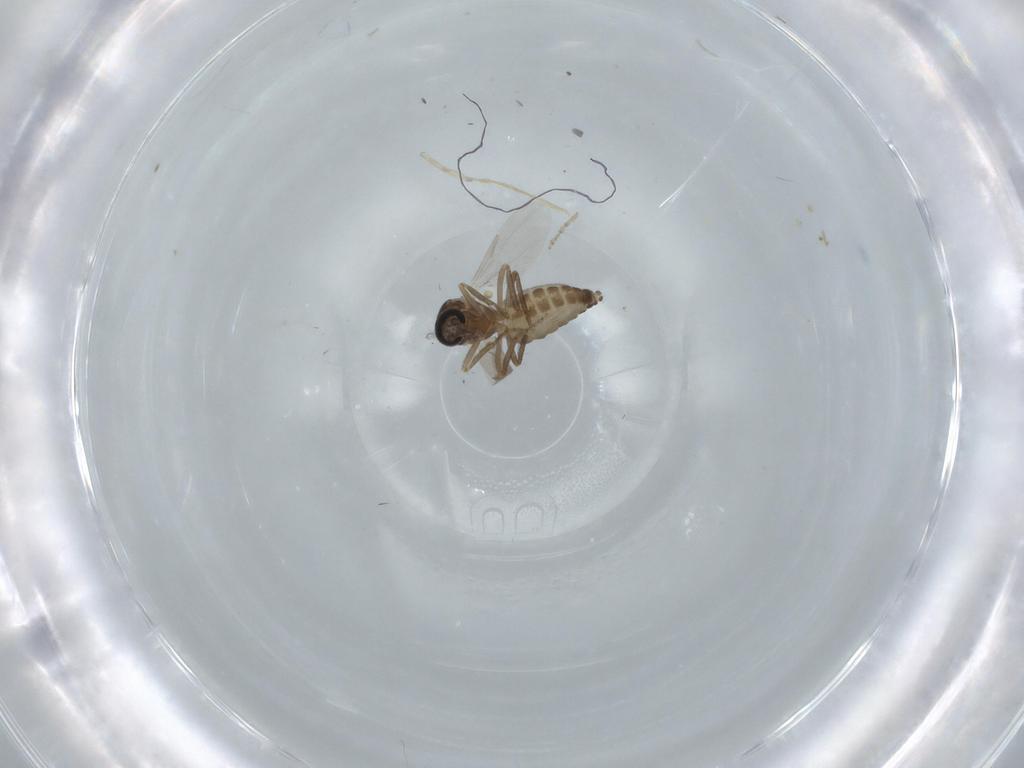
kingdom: Animalia
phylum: Arthropoda
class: Insecta
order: Diptera
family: Ceratopogonidae
